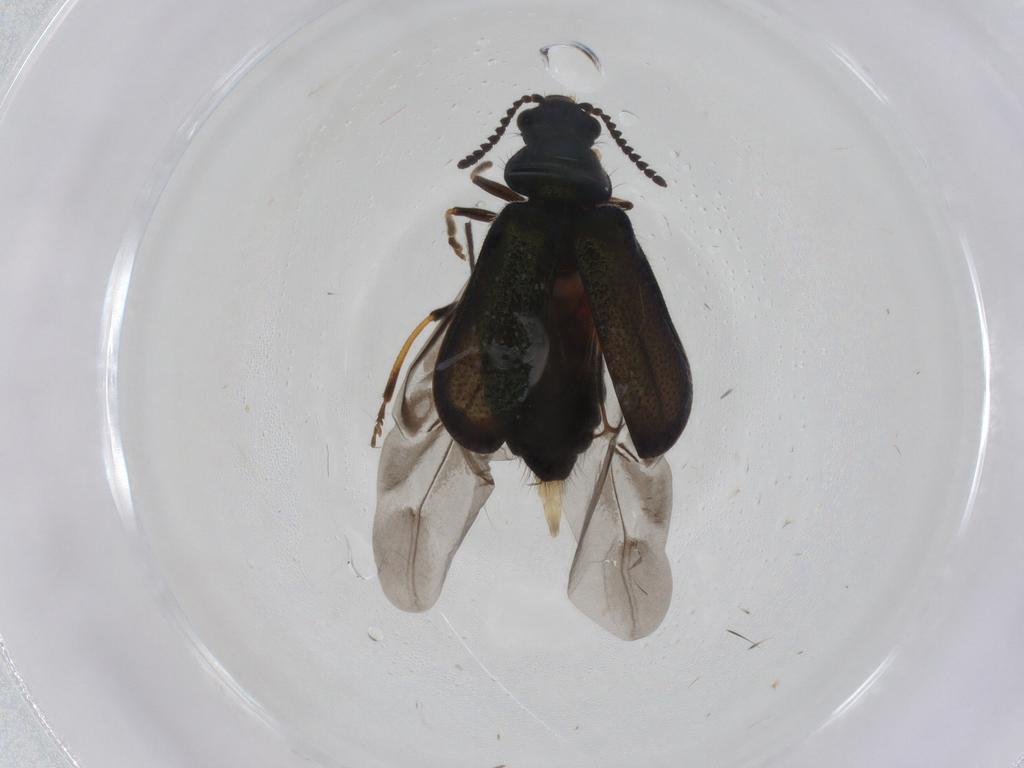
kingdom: Animalia
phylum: Arthropoda
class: Insecta
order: Coleoptera
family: Melyridae
